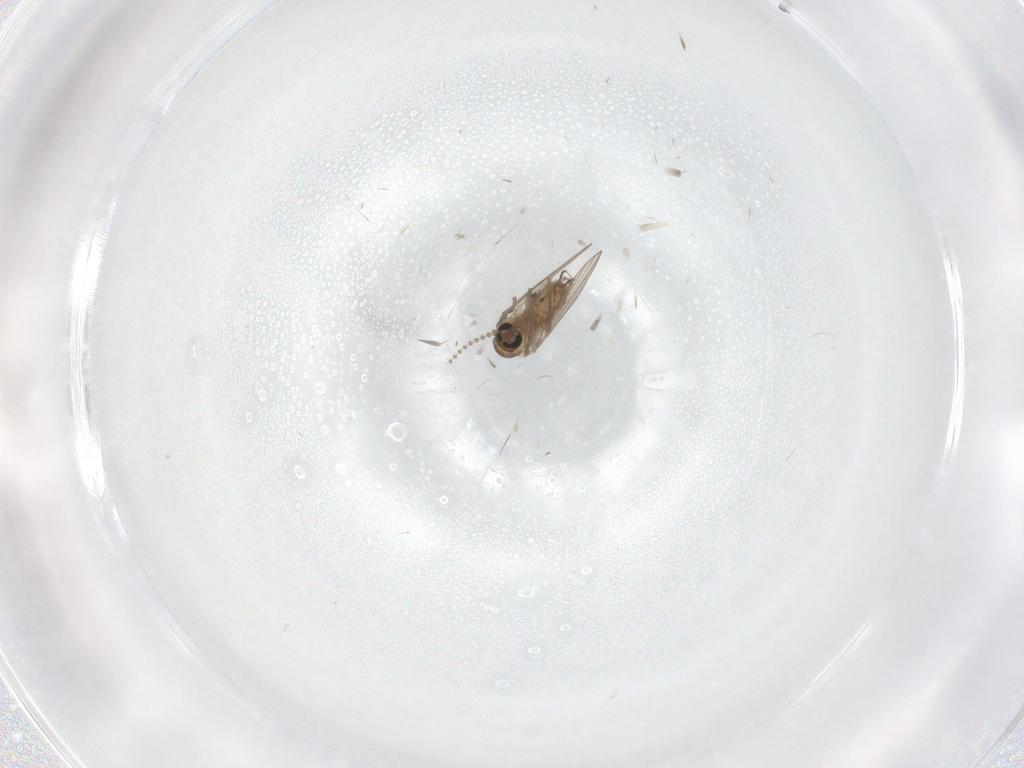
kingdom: Animalia
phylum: Arthropoda
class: Insecta
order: Diptera
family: Psychodidae
